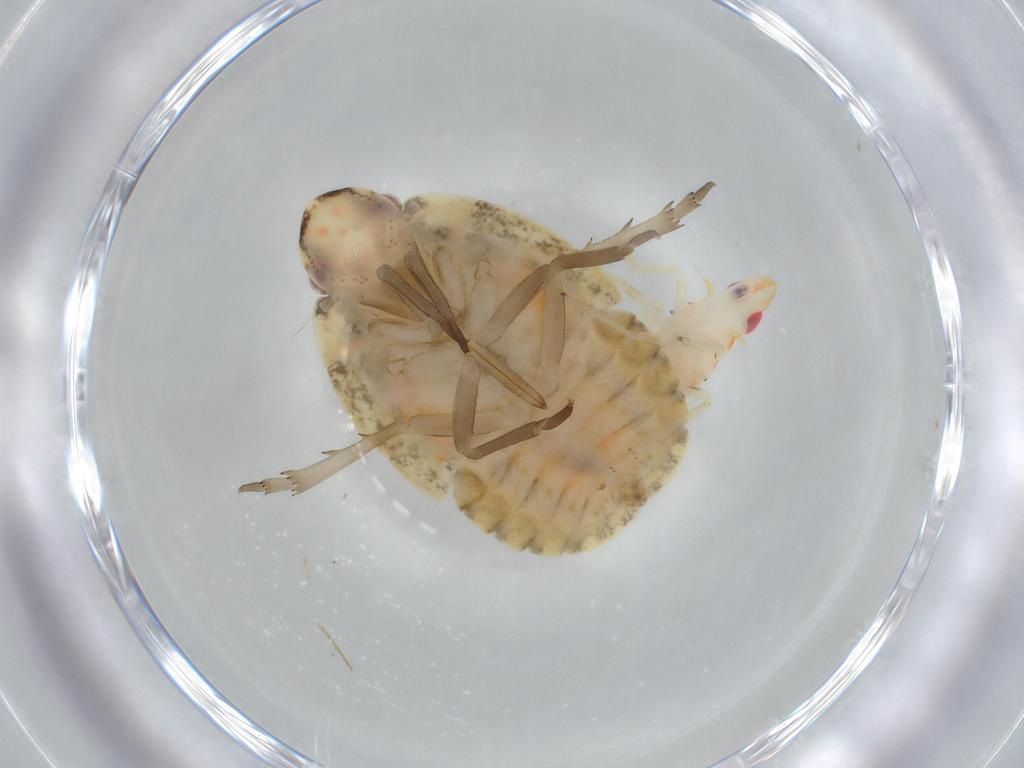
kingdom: Animalia
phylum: Arthropoda
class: Insecta
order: Hemiptera
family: Flatidae
